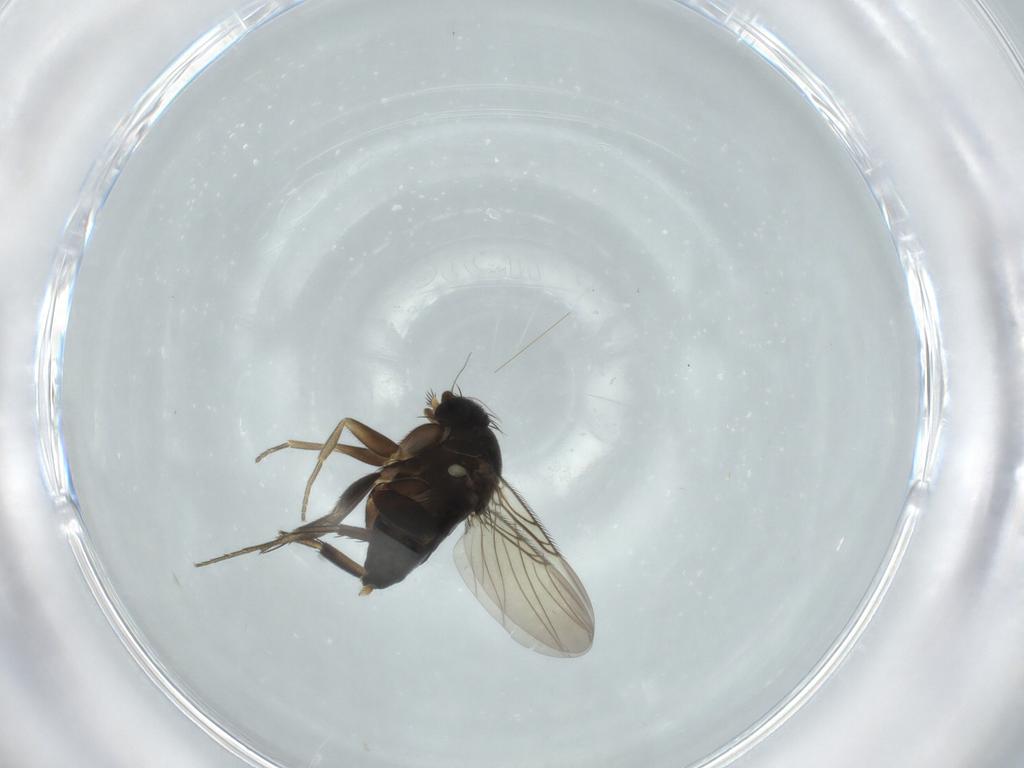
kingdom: Animalia
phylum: Arthropoda
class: Insecta
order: Diptera
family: Phoridae
